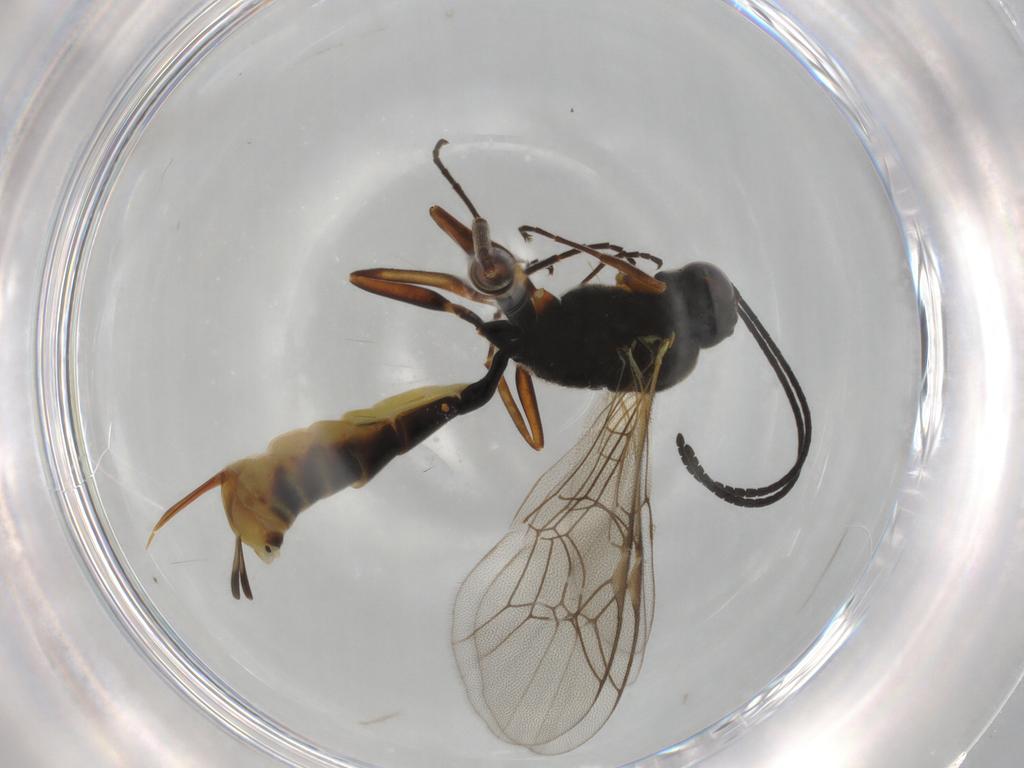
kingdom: Animalia
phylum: Arthropoda
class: Insecta
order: Hymenoptera
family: Ichneumonidae
